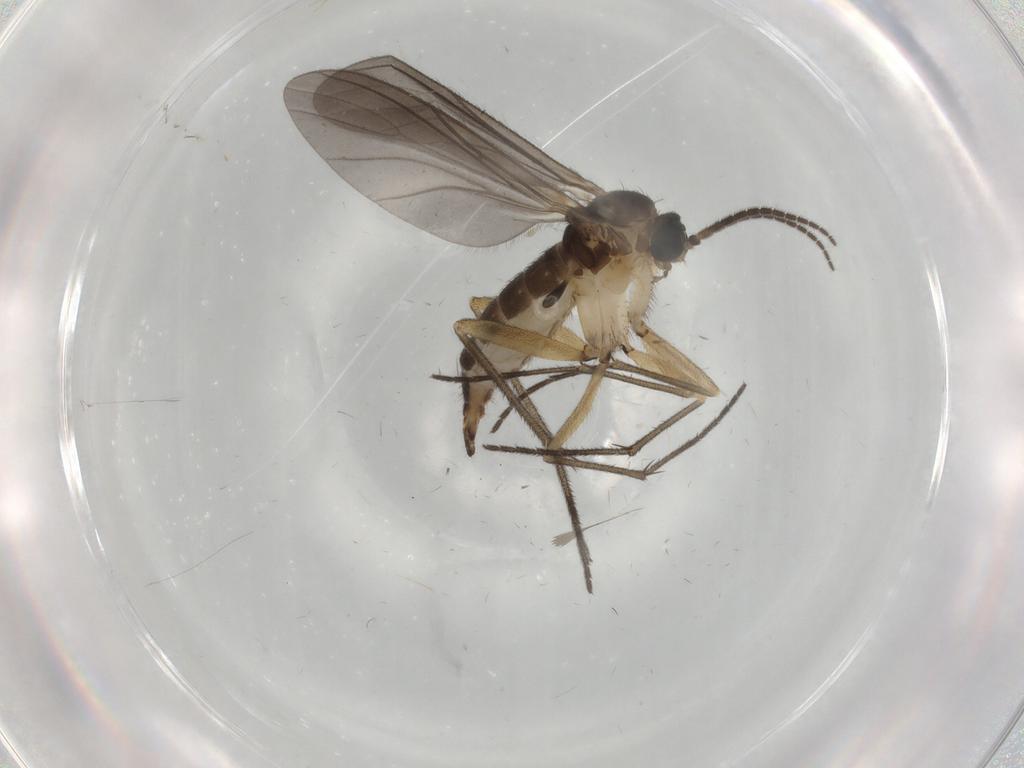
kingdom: Animalia
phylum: Arthropoda
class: Insecta
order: Diptera
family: Sciaridae
